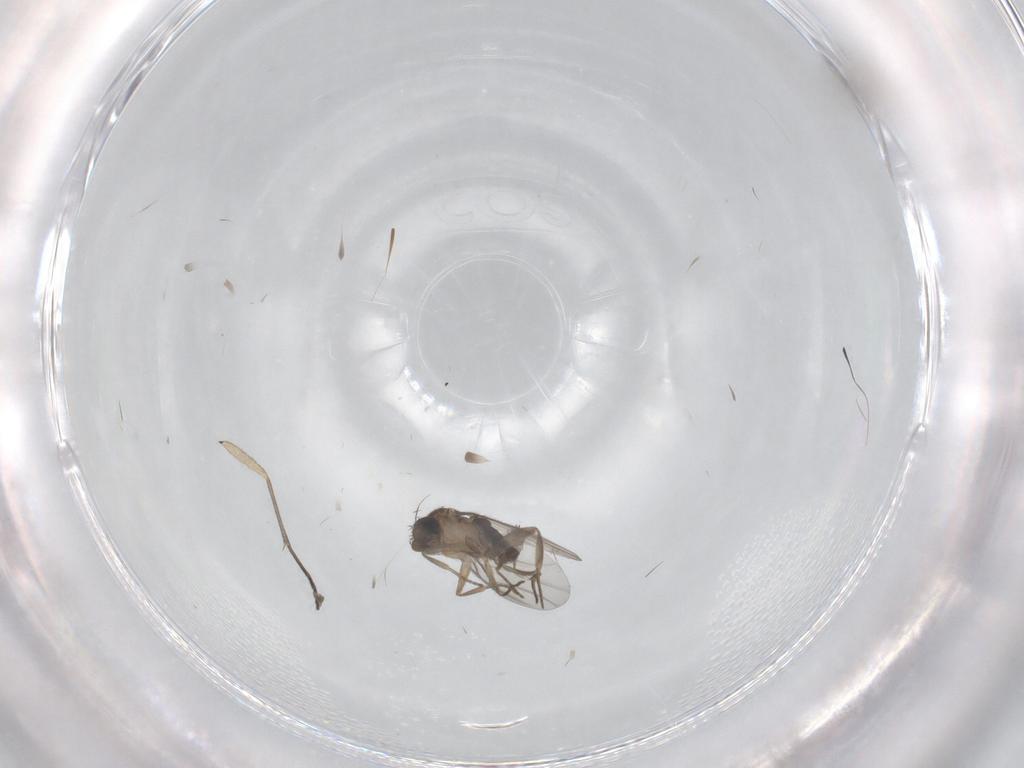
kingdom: Animalia
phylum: Arthropoda
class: Insecta
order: Diptera
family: Sciaridae
